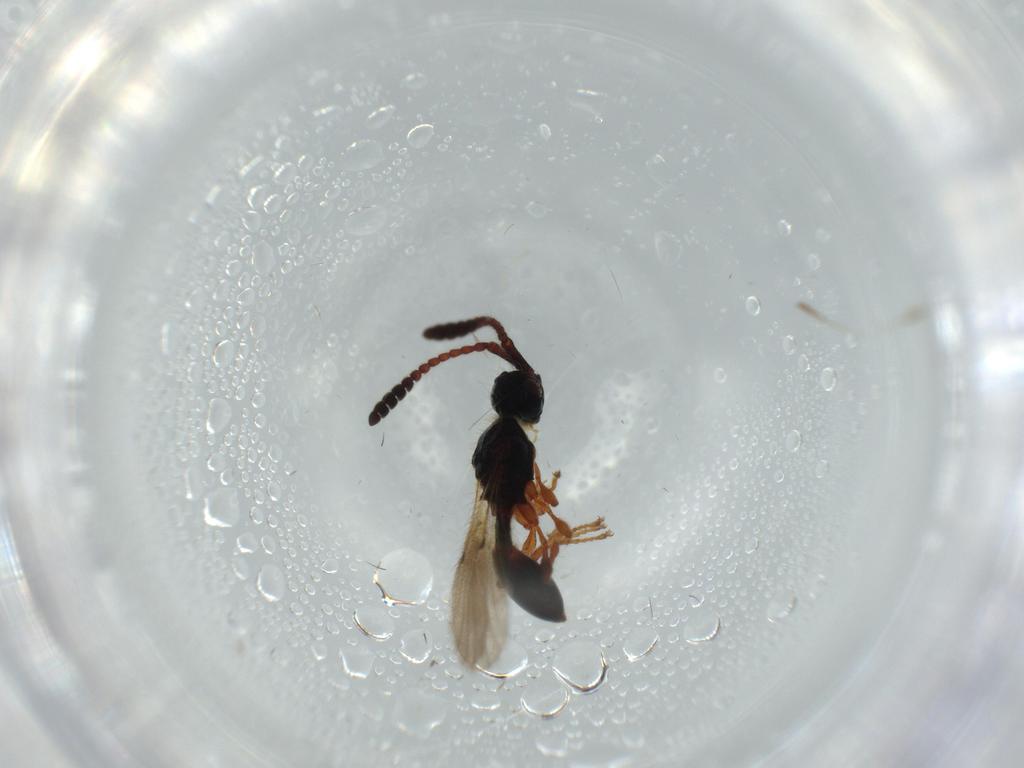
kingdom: Animalia
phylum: Arthropoda
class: Insecta
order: Hymenoptera
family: Diapriidae
